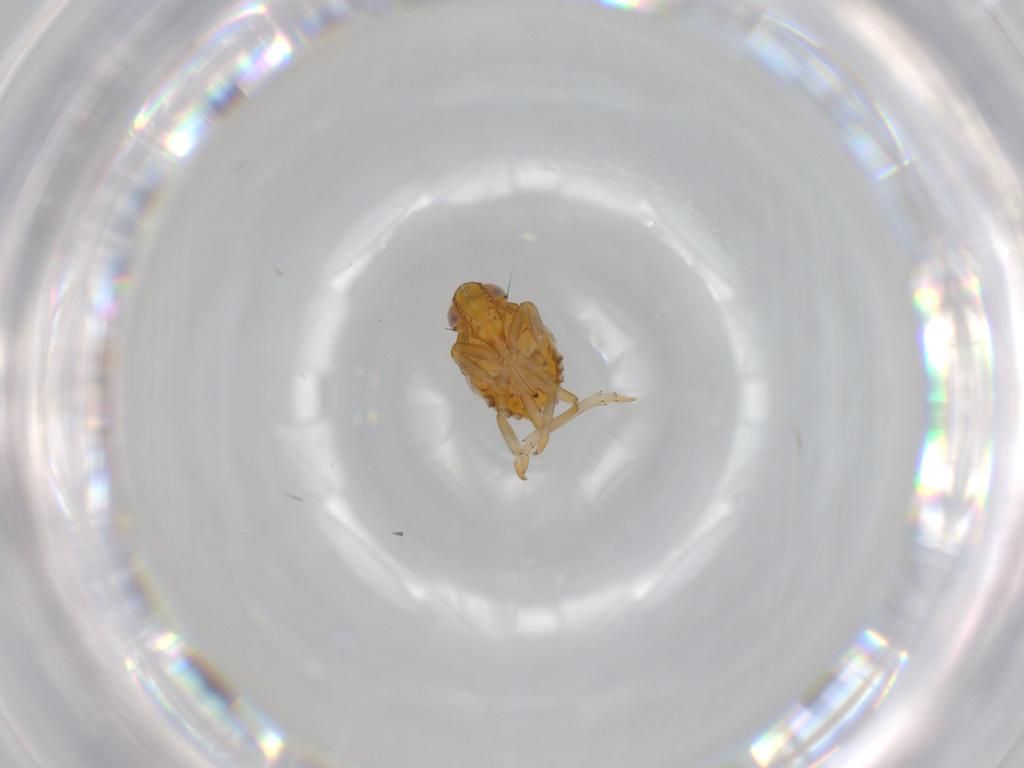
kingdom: Animalia
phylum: Arthropoda
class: Insecta
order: Hemiptera
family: Issidae
